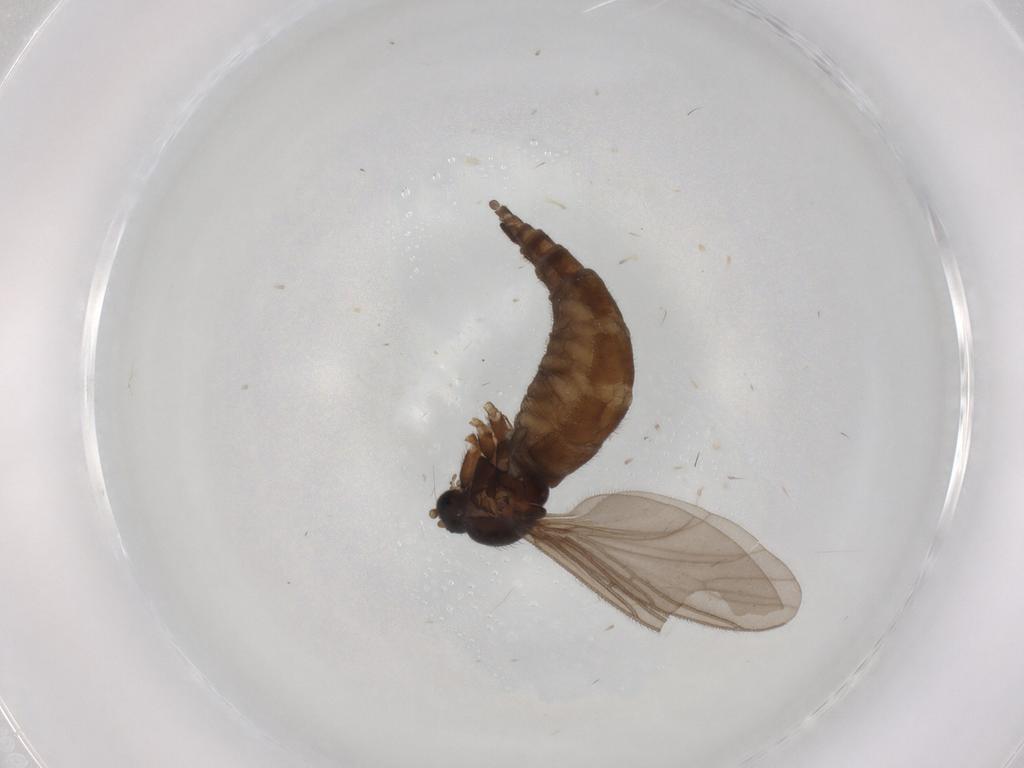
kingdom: Animalia
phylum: Arthropoda
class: Insecta
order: Diptera
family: Sciaridae
